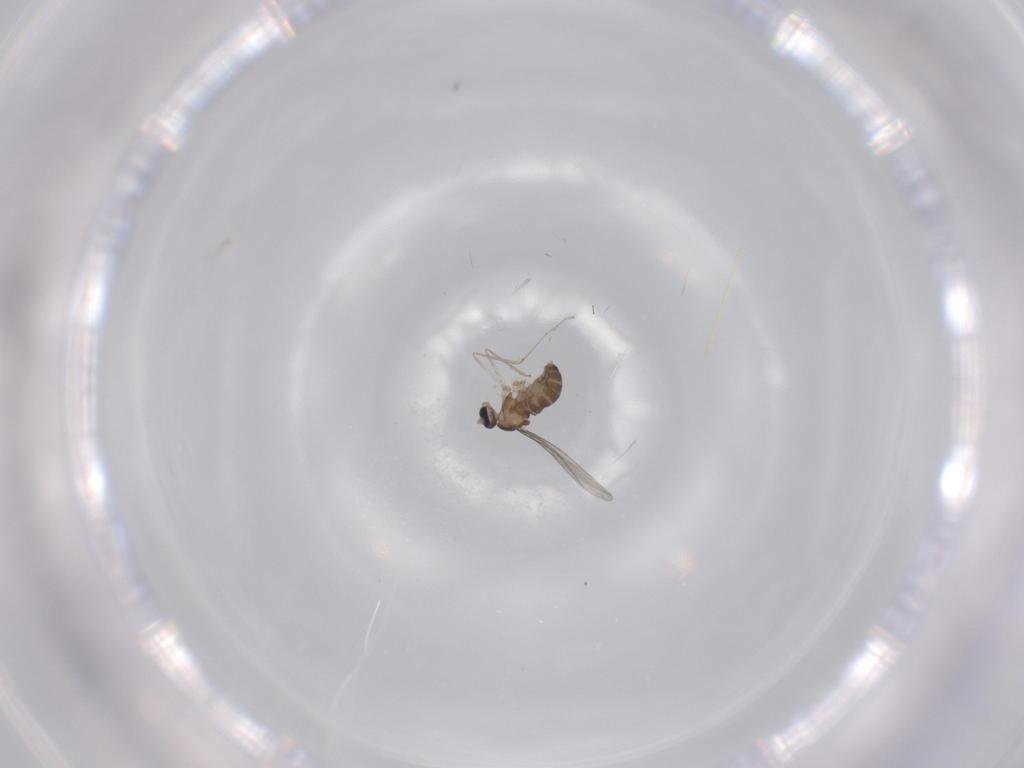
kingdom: Animalia
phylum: Arthropoda
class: Insecta
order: Diptera
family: Cecidomyiidae
